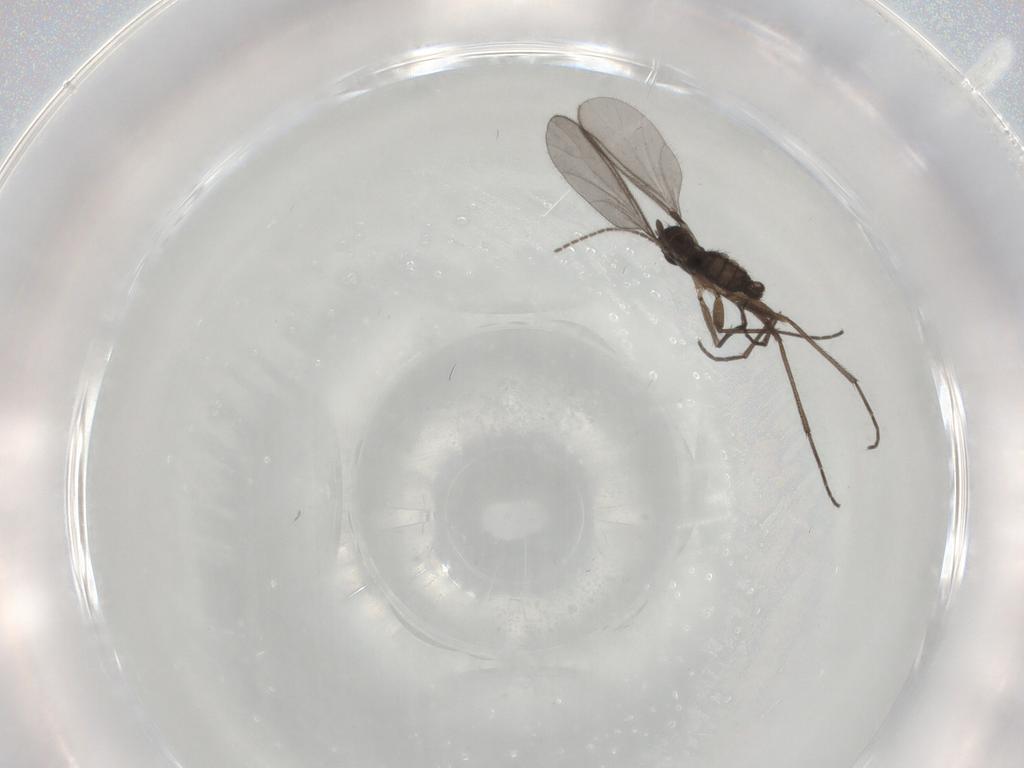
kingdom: Animalia
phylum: Arthropoda
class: Insecta
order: Diptera
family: Phoridae
